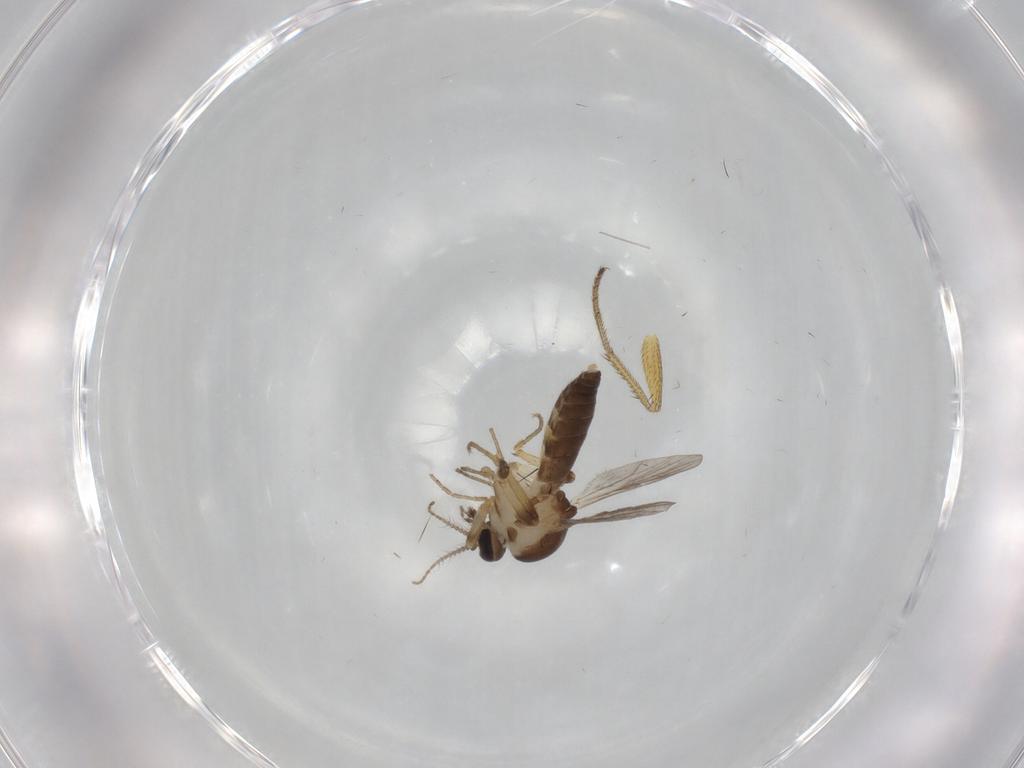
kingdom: Animalia
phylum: Arthropoda
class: Insecta
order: Diptera
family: Ceratopogonidae
